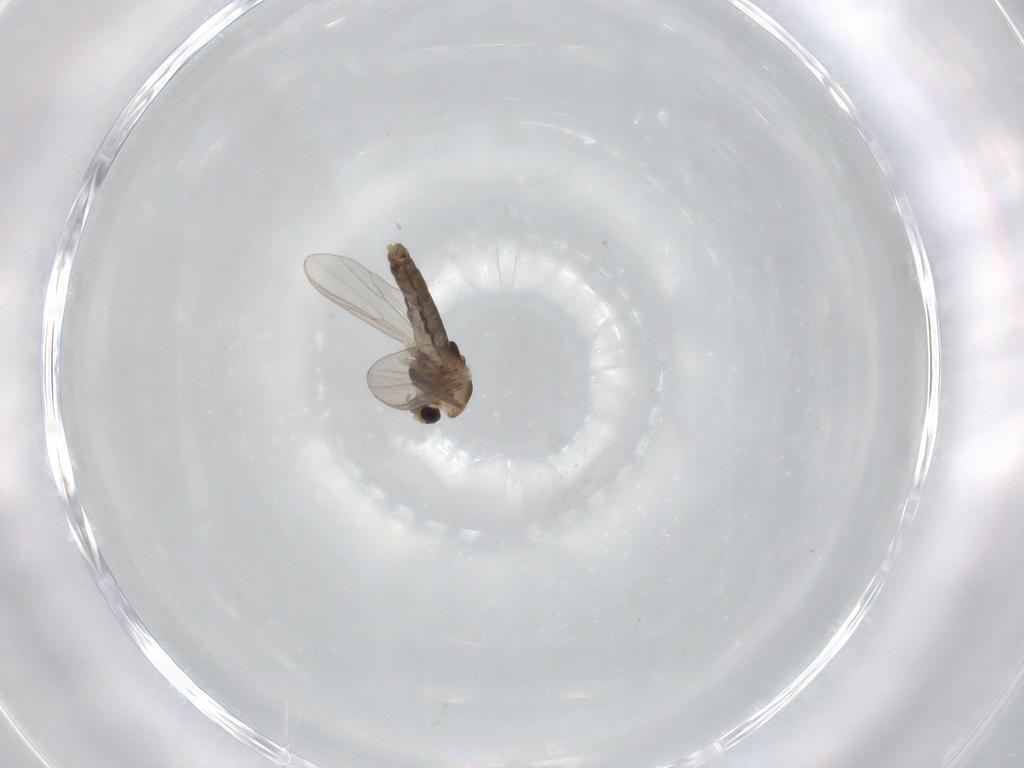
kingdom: Animalia
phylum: Arthropoda
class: Insecta
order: Diptera
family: Chironomidae
